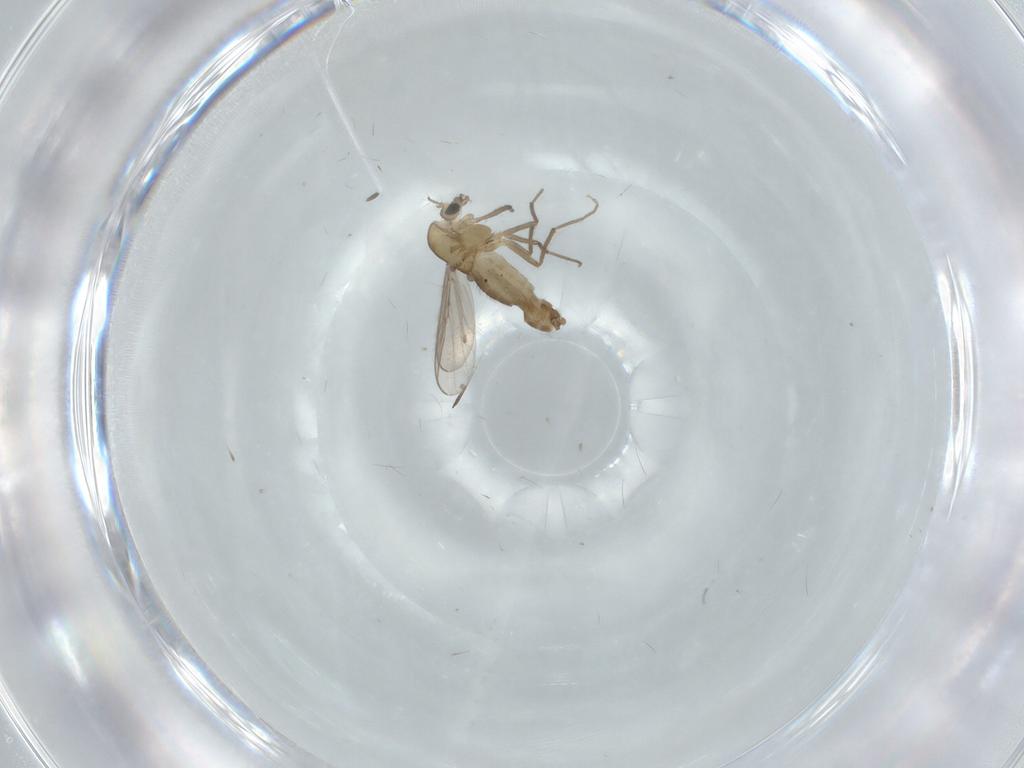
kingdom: Animalia
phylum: Arthropoda
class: Insecta
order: Diptera
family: Chironomidae
